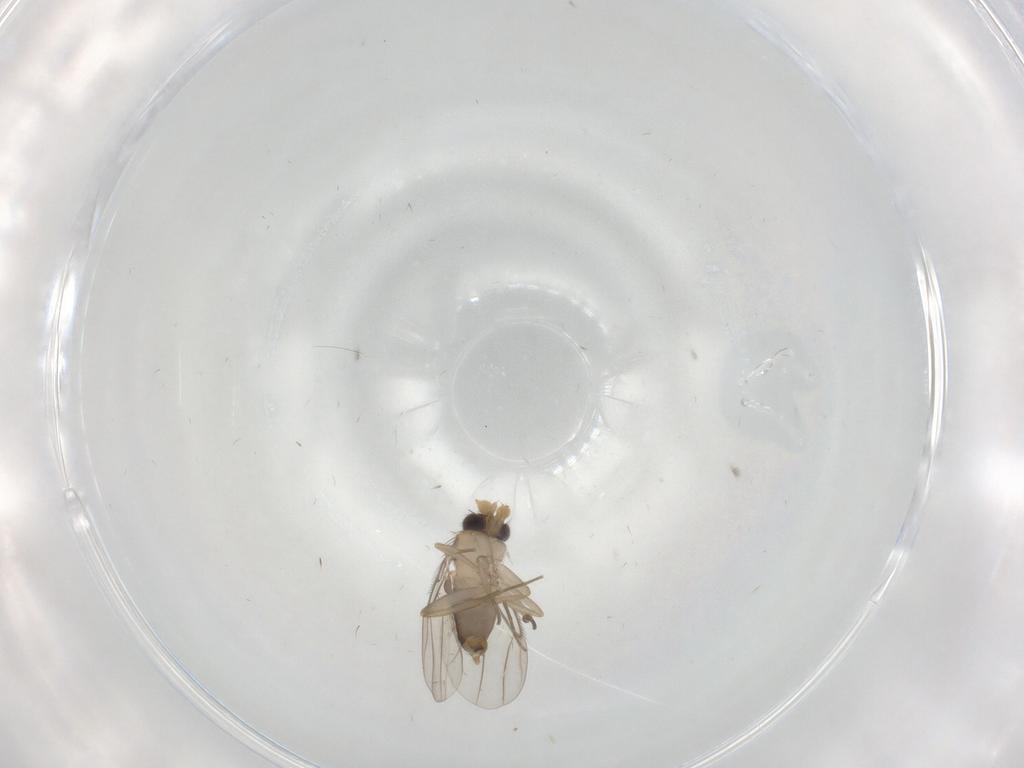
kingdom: Animalia
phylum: Arthropoda
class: Insecta
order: Diptera
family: Phoridae
